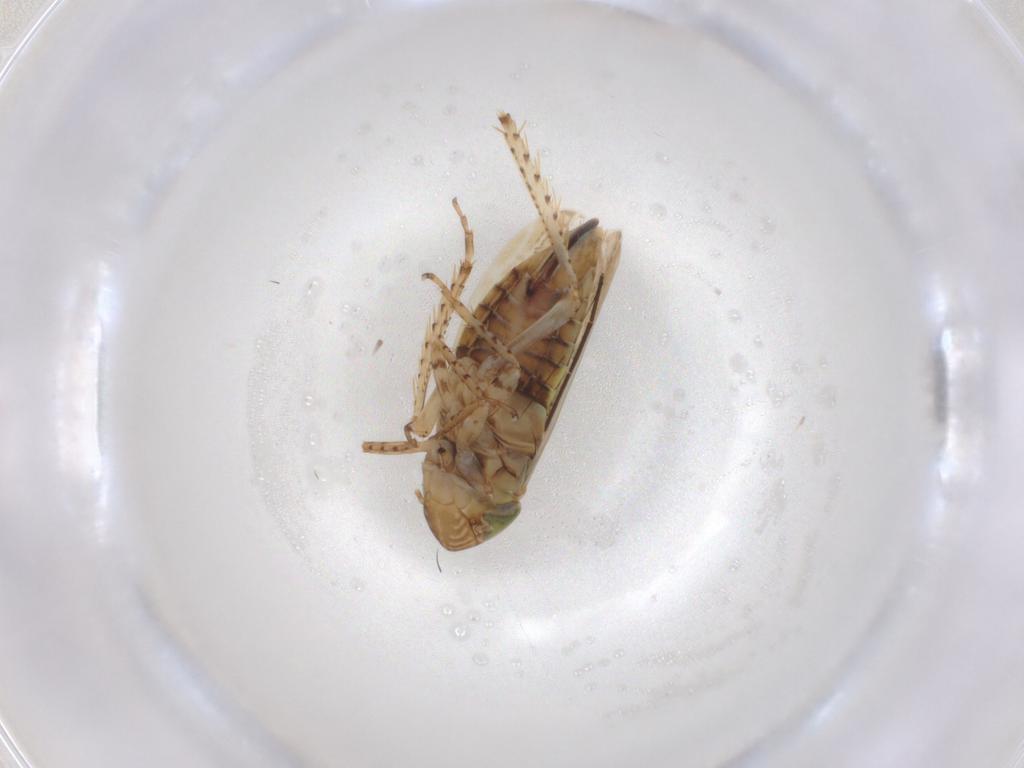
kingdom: Animalia
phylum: Arthropoda
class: Insecta
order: Hemiptera
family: Cicadellidae
